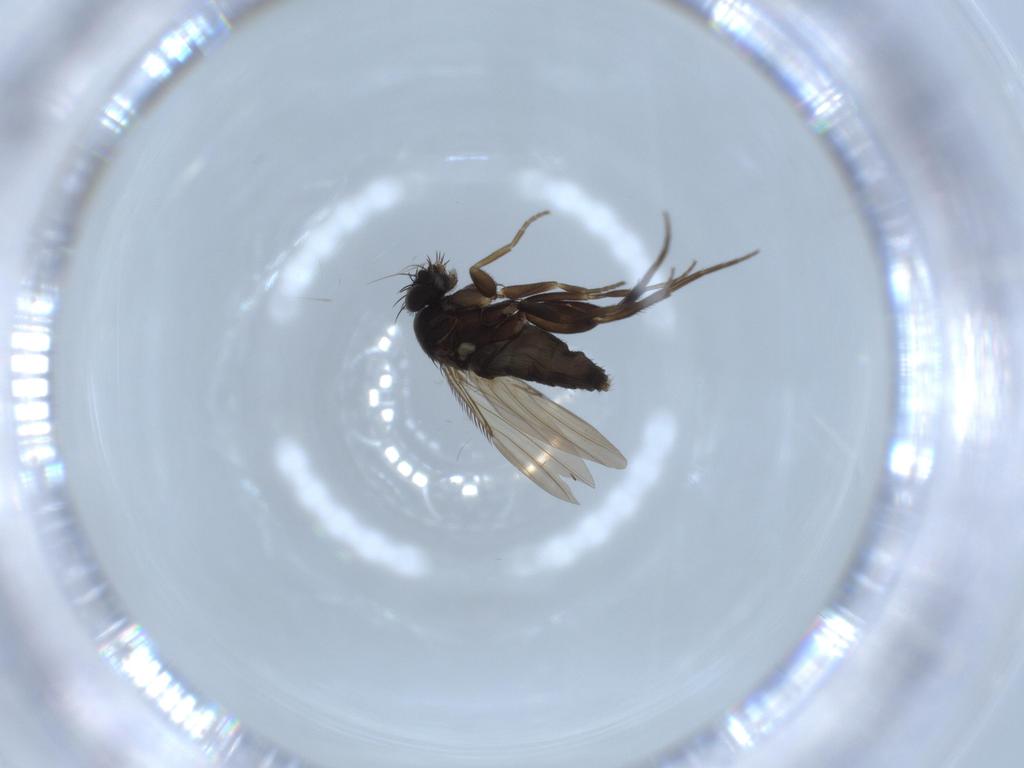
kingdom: Animalia
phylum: Arthropoda
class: Insecta
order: Diptera
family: Phoridae
